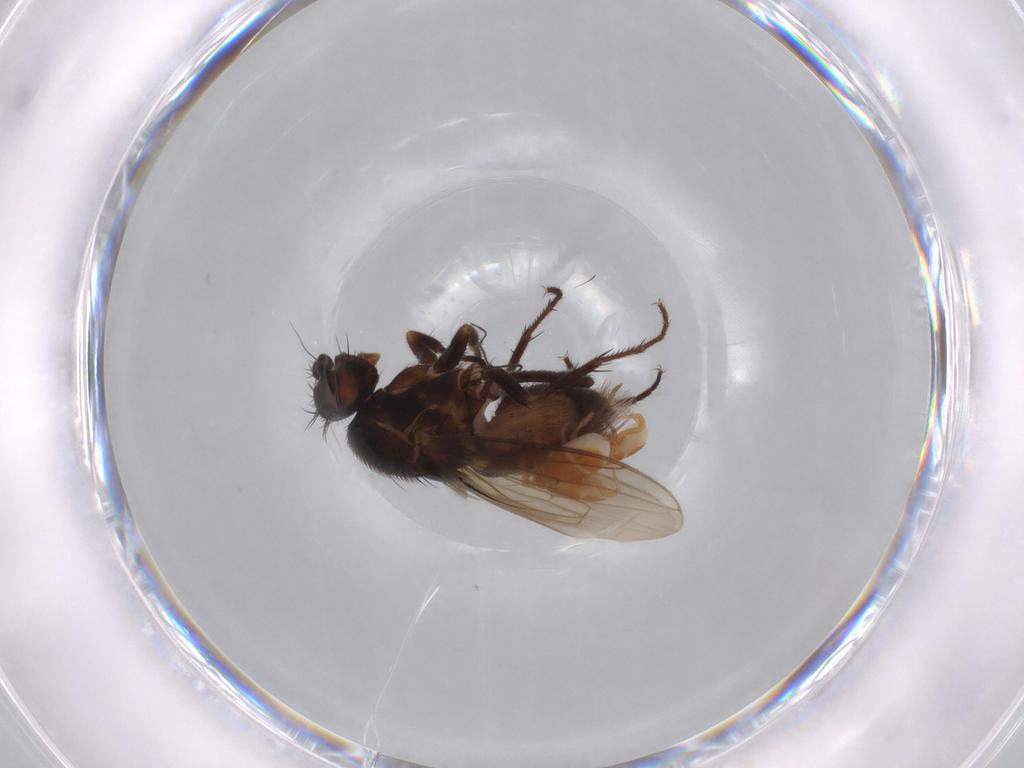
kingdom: Animalia
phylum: Arthropoda
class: Insecta
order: Diptera
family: Sphaeroceridae
